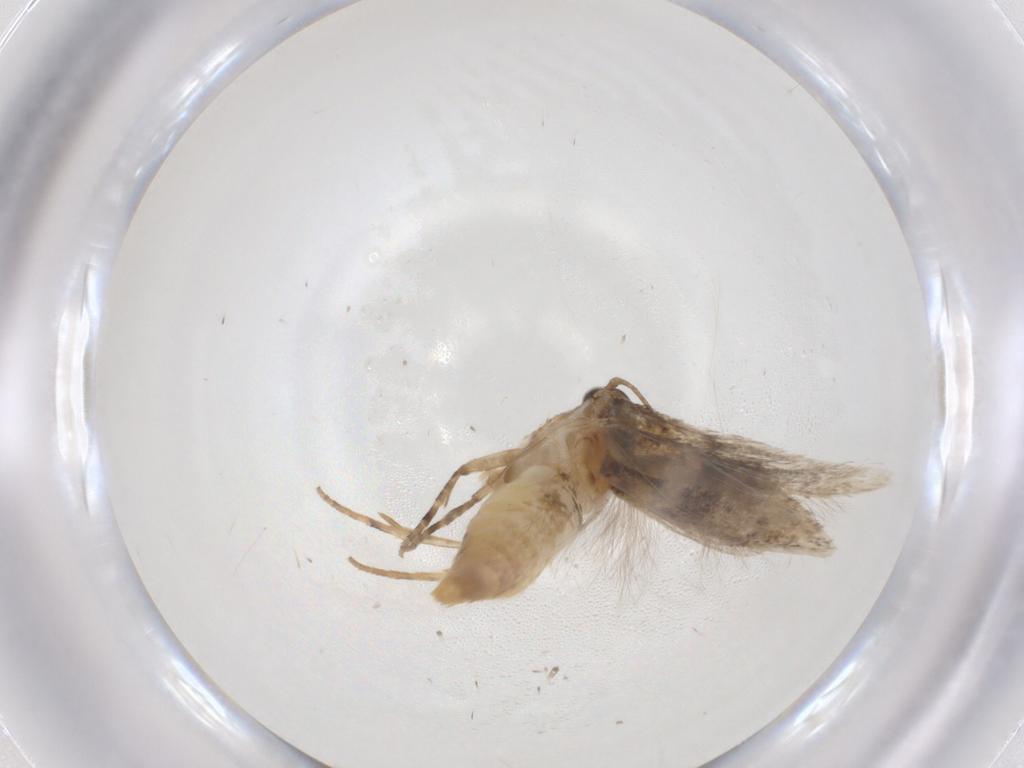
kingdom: Animalia
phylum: Arthropoda
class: Insecta
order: Lepidoptera
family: Gelechiidae
